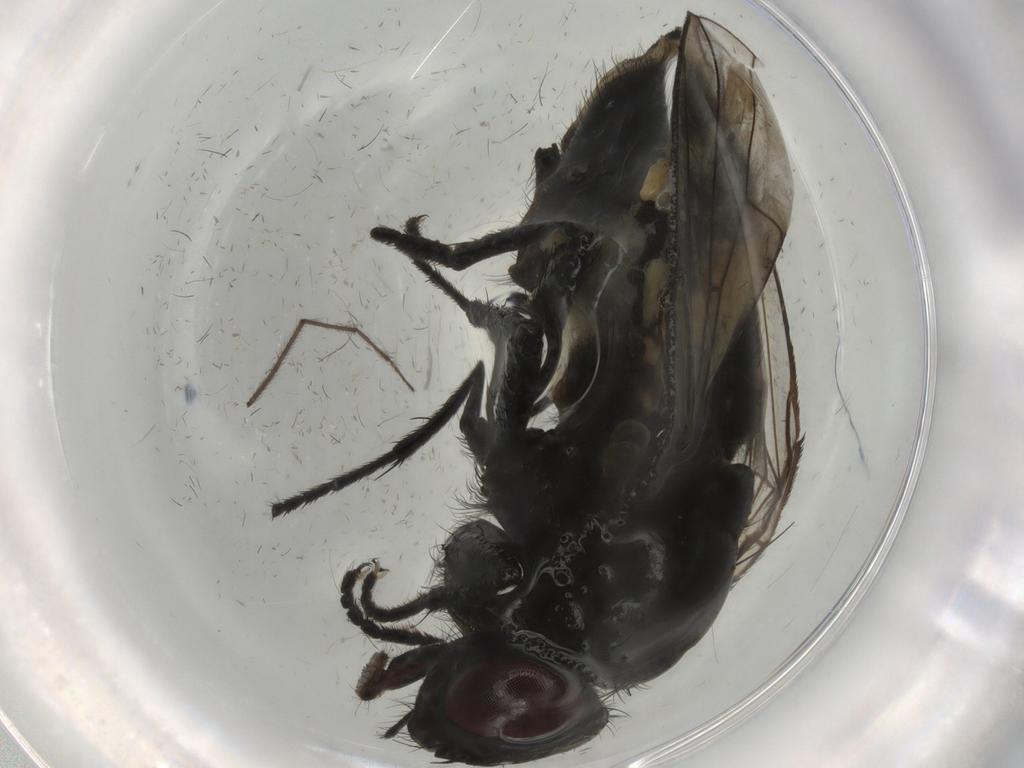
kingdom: Animalia
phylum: Arthropoda
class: Insecta
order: Diptera
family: Muscidae
